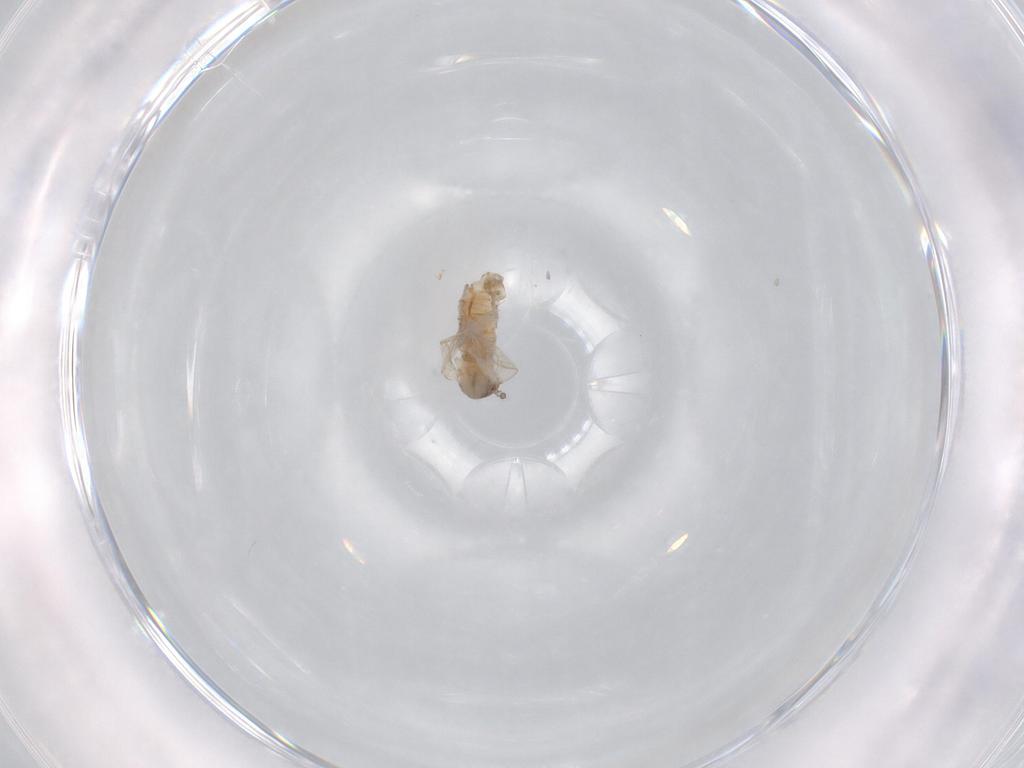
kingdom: Animalia
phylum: Arthropoda
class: Insecta
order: Diptera
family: Psychodidae
